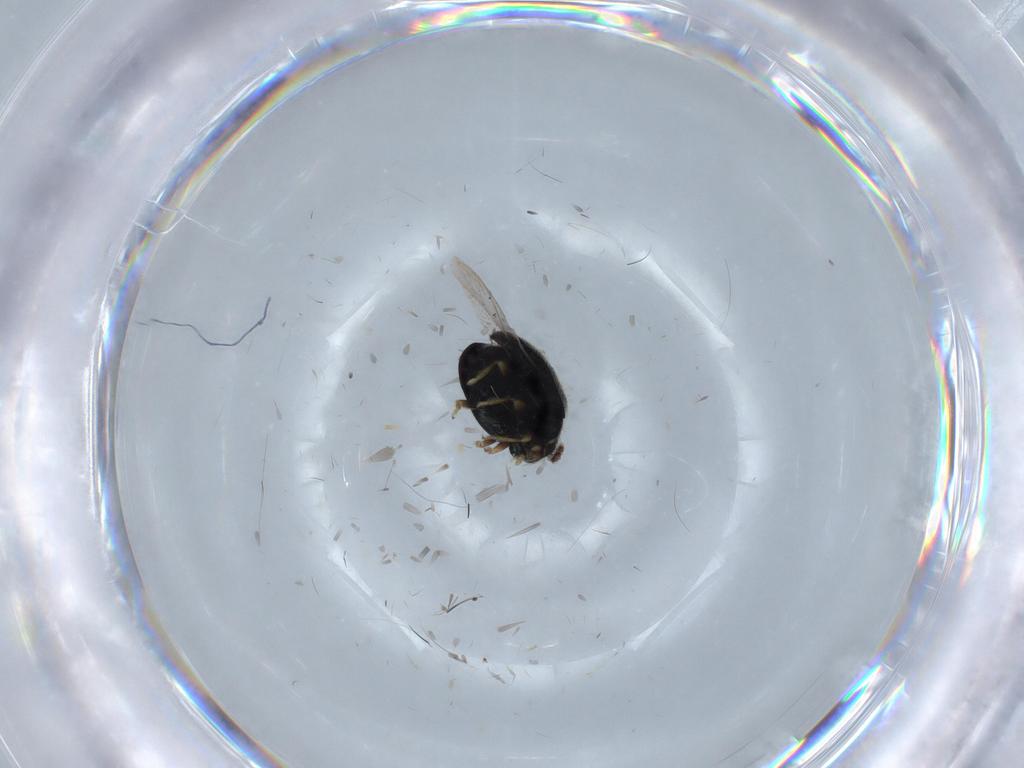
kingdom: Animalia
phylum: Arthropoda
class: Insecta
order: Coleoptera
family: Coccinellidae
